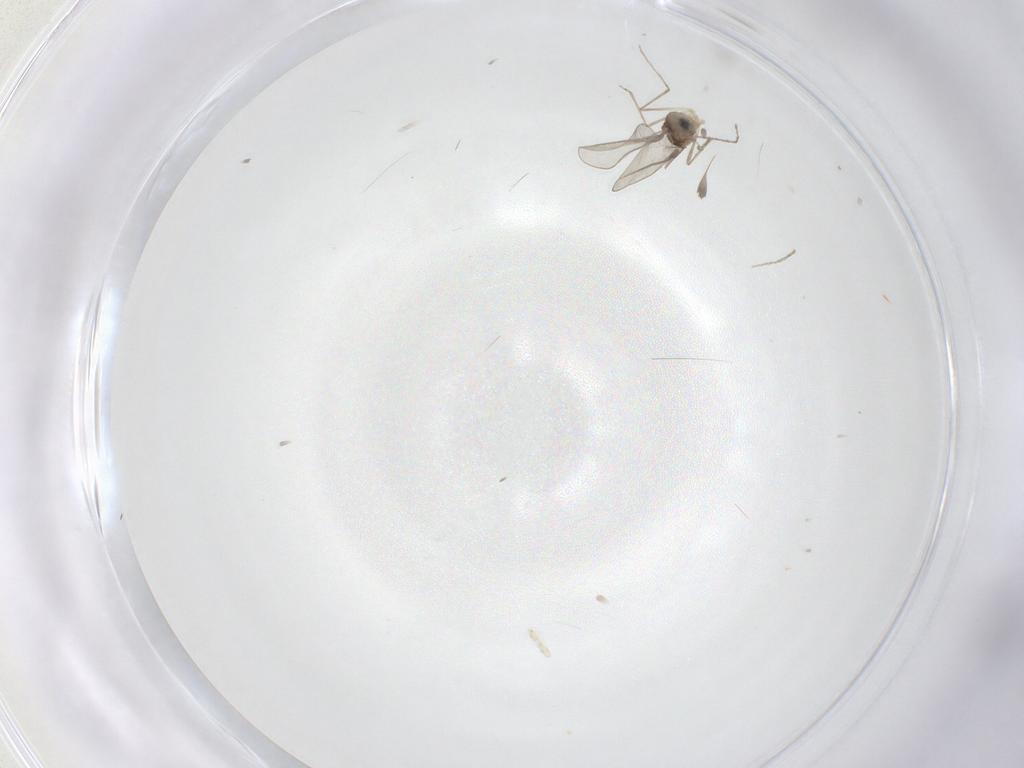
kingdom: Animalia
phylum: Arthropoda
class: Insecta
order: Diptera
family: Cecidomyiidae
